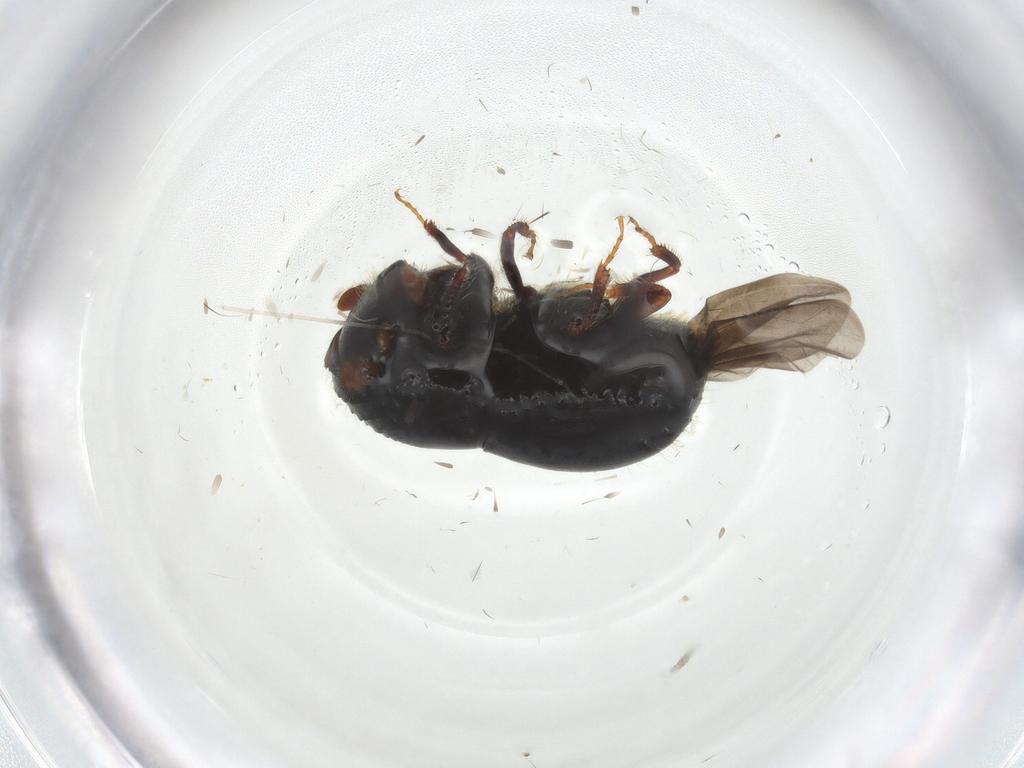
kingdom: Animalia
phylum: Arthropoda
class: Insecta
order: Coleoptera
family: Curculionidae
